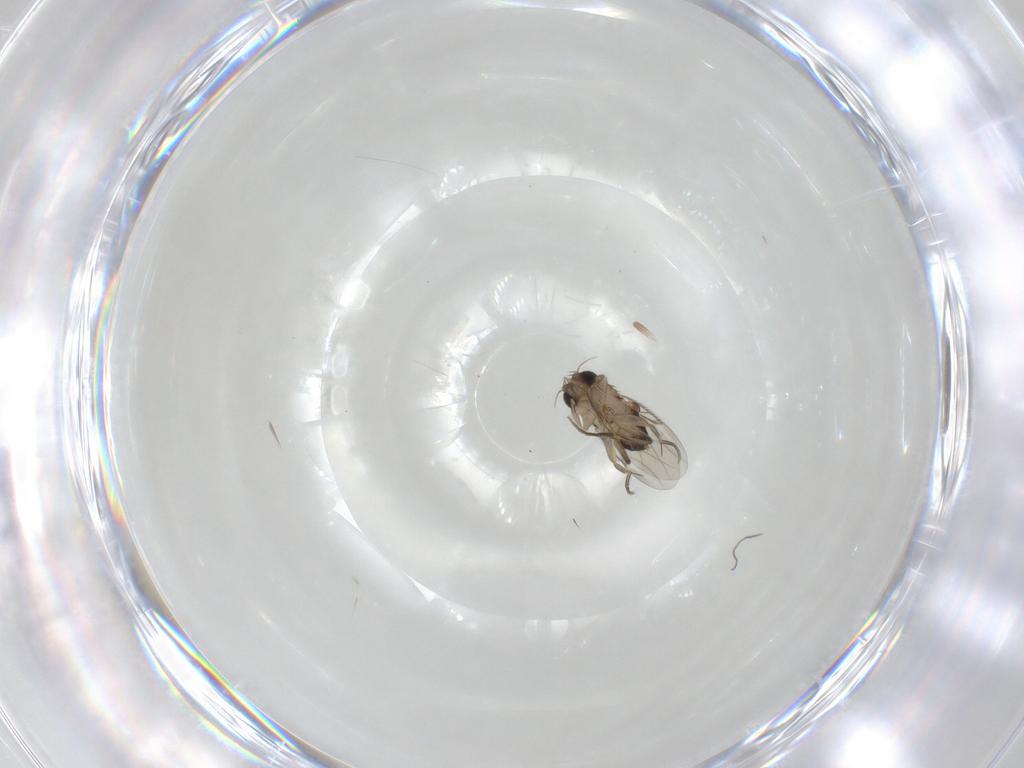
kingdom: Animalia
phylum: Arthropoda
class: Insecta
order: Diptera
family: Phoridae
